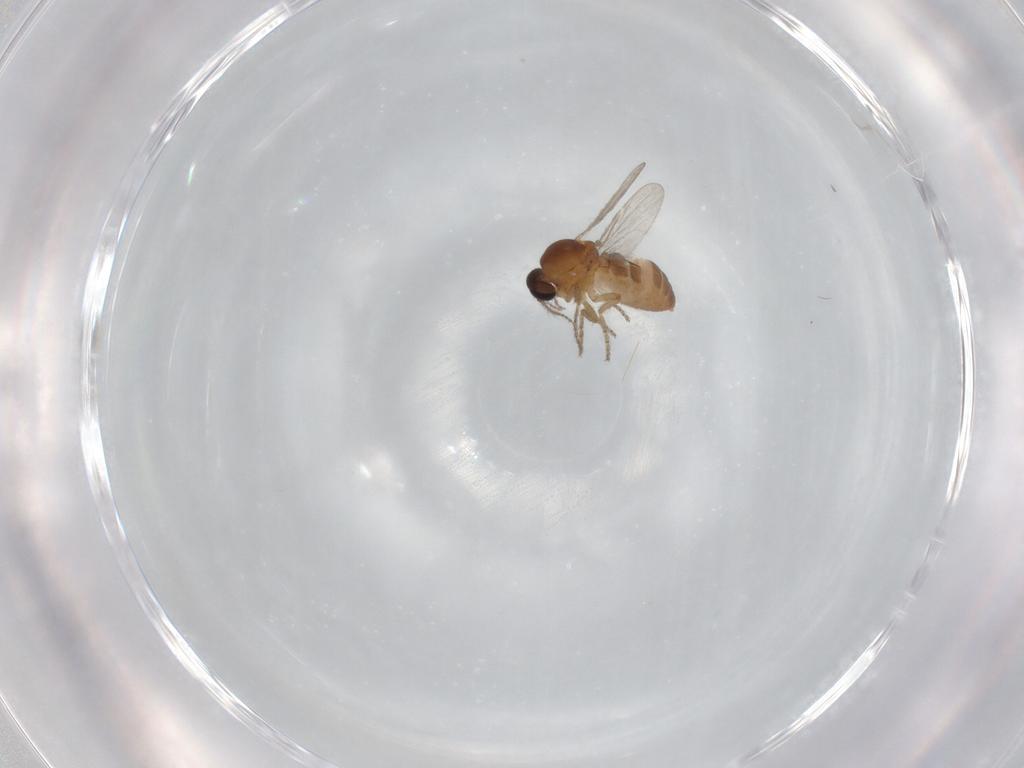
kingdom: Animalia
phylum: Arthropoda
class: Insecta
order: Diptera
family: Ceratopogonidae
